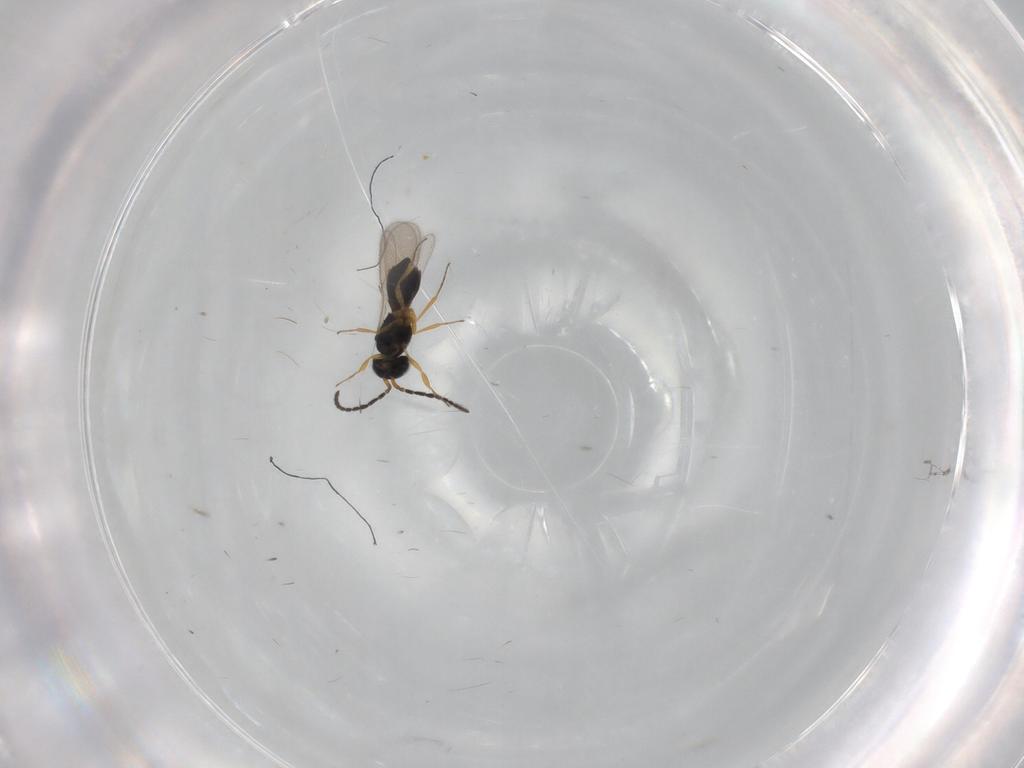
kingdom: Animalia
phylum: Arthropoda
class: Insecta
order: Hymenoptera
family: Scelionidae
